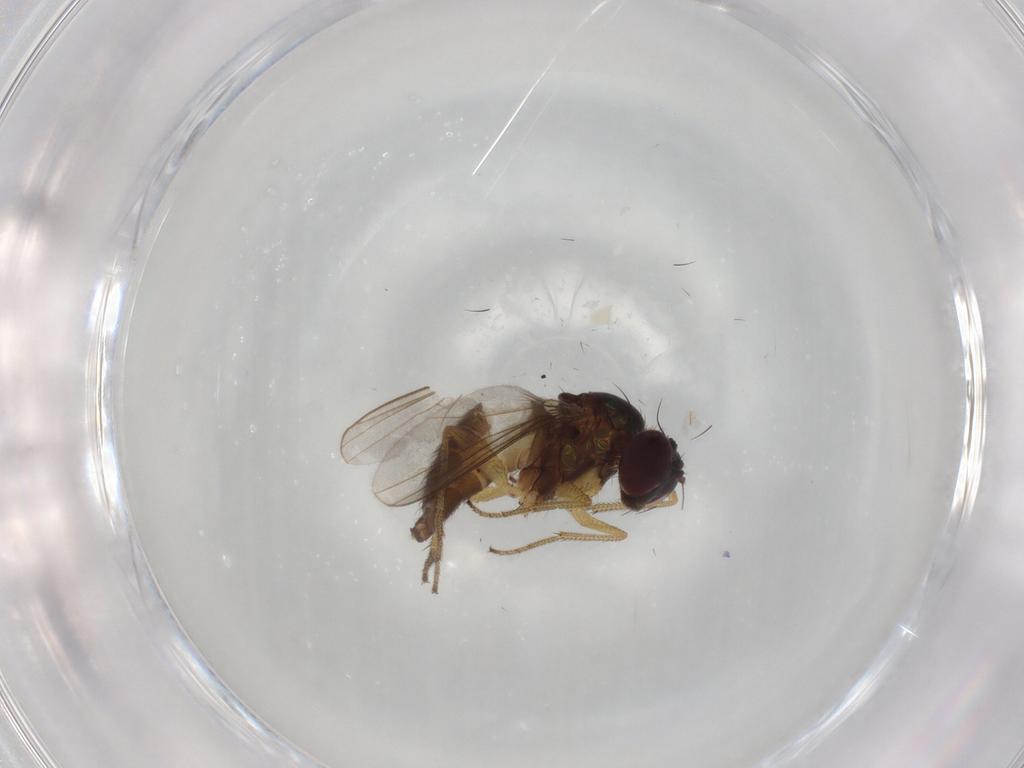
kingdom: Animalia
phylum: Arthropoda
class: Insecta
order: Diptera
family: Dolichopodidae
